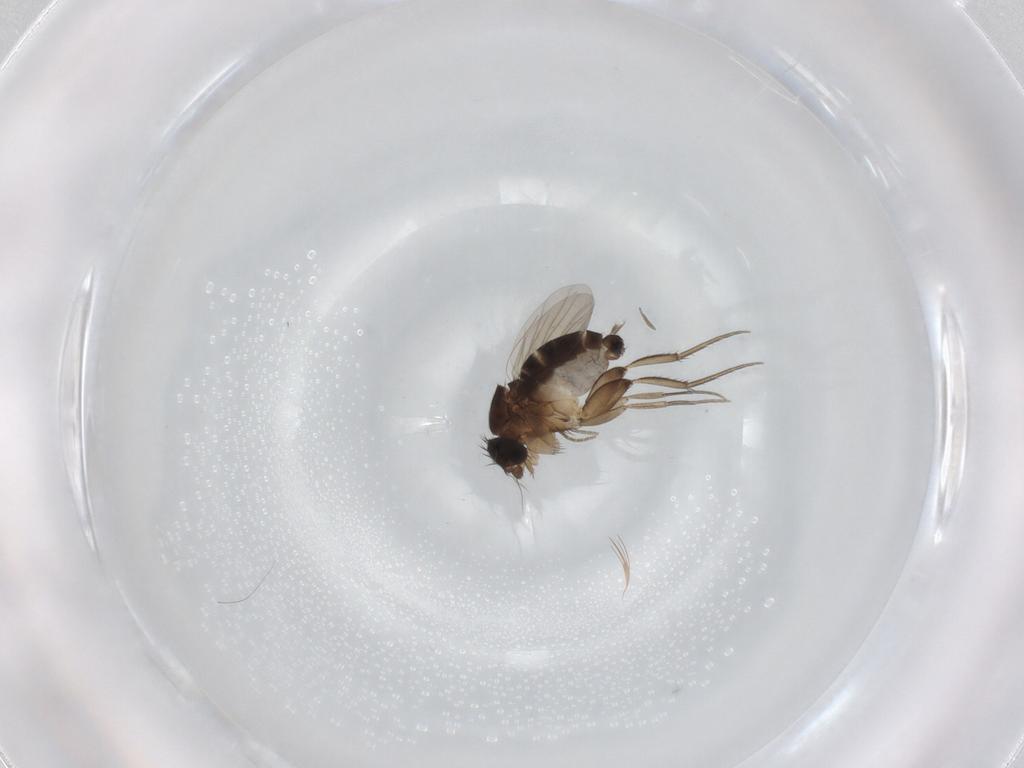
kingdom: Animalia
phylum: Arthropoda
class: Insecta
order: Diptera
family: Phoridae
